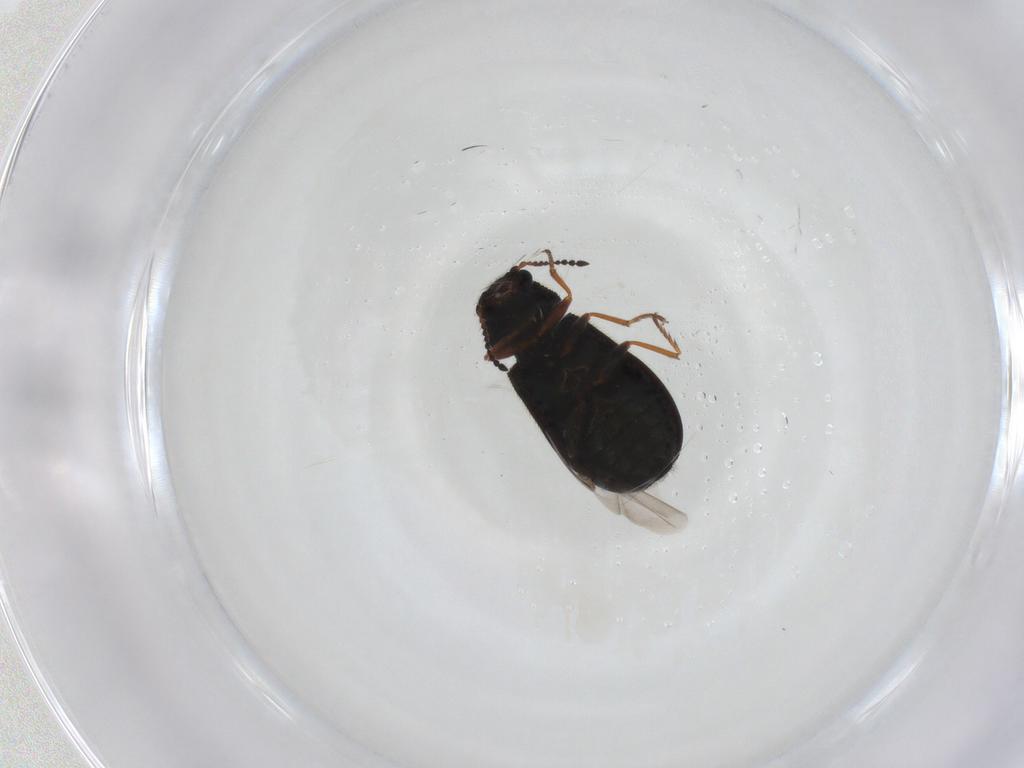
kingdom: Animalia
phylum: Arthropoda
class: Insecta
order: Coleoptera
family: Melyridae
